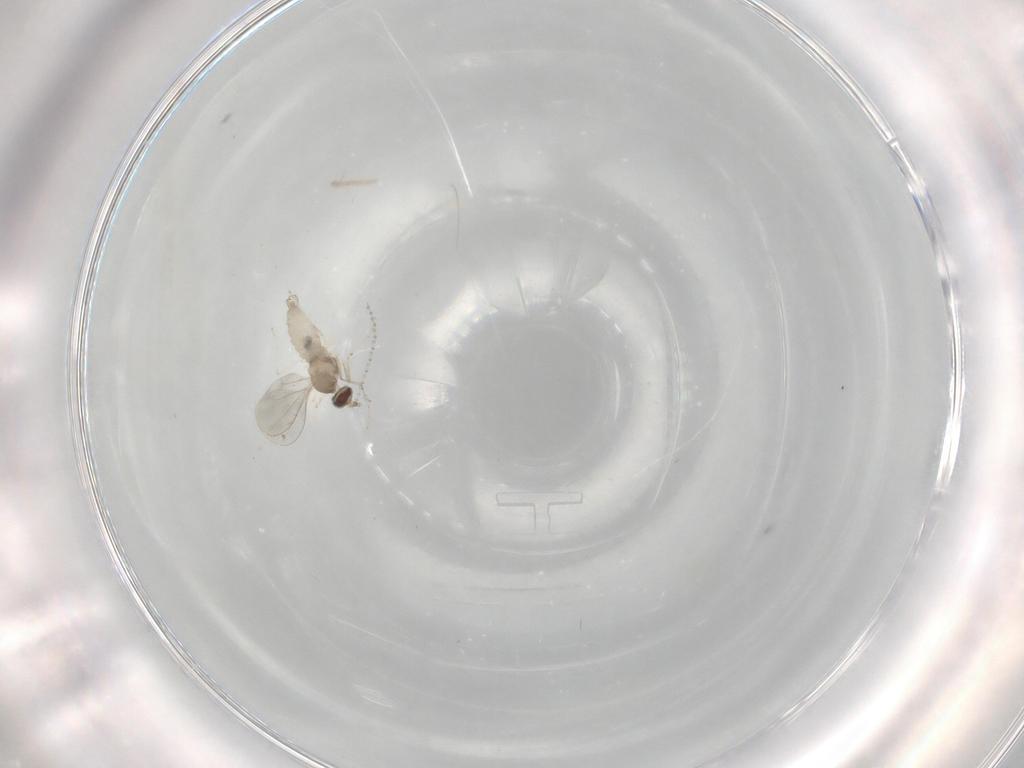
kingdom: Animalia
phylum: Arthropoda
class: Insecta
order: Diptera
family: Cecidomyiidae
